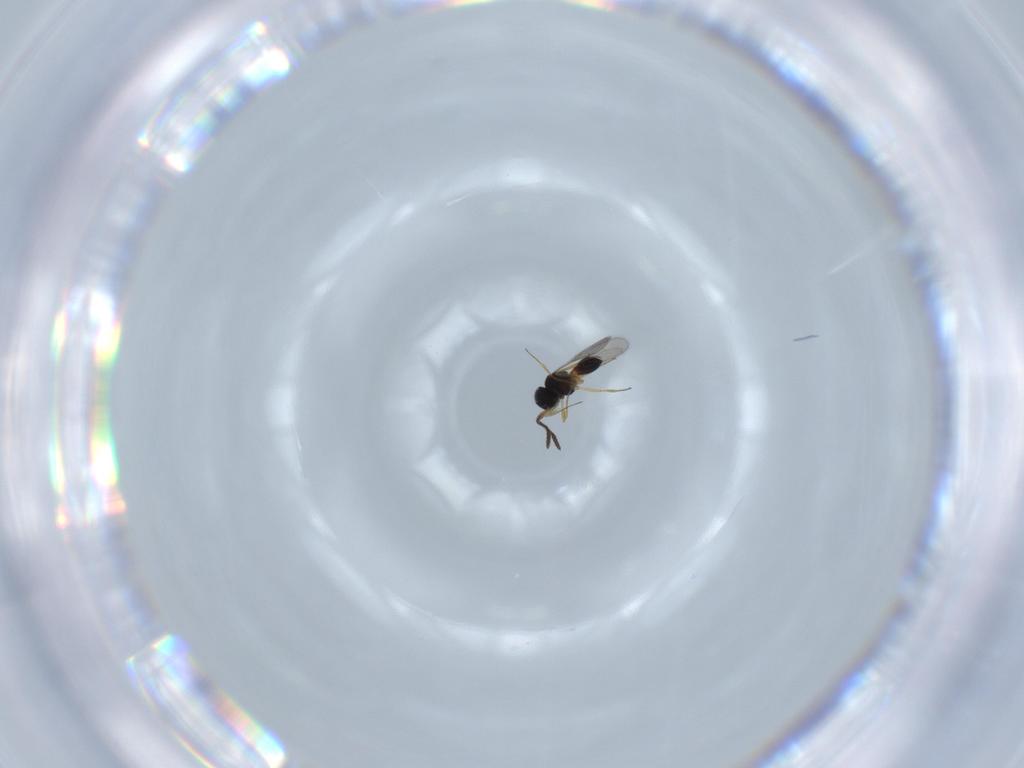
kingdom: Animalia
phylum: Arthropoda
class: Insecta
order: Hymenoptera
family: Scelionidae
